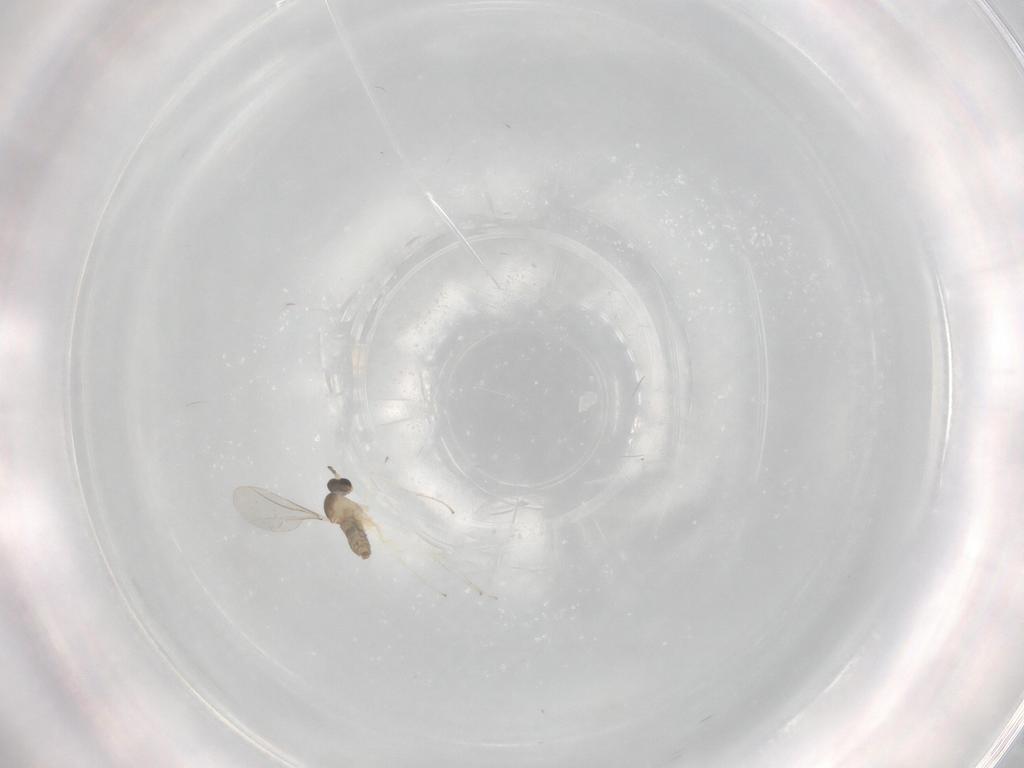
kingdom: Animalia
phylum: Arthropoda
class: Insecta
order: Diptera
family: Cecidomyiidae
